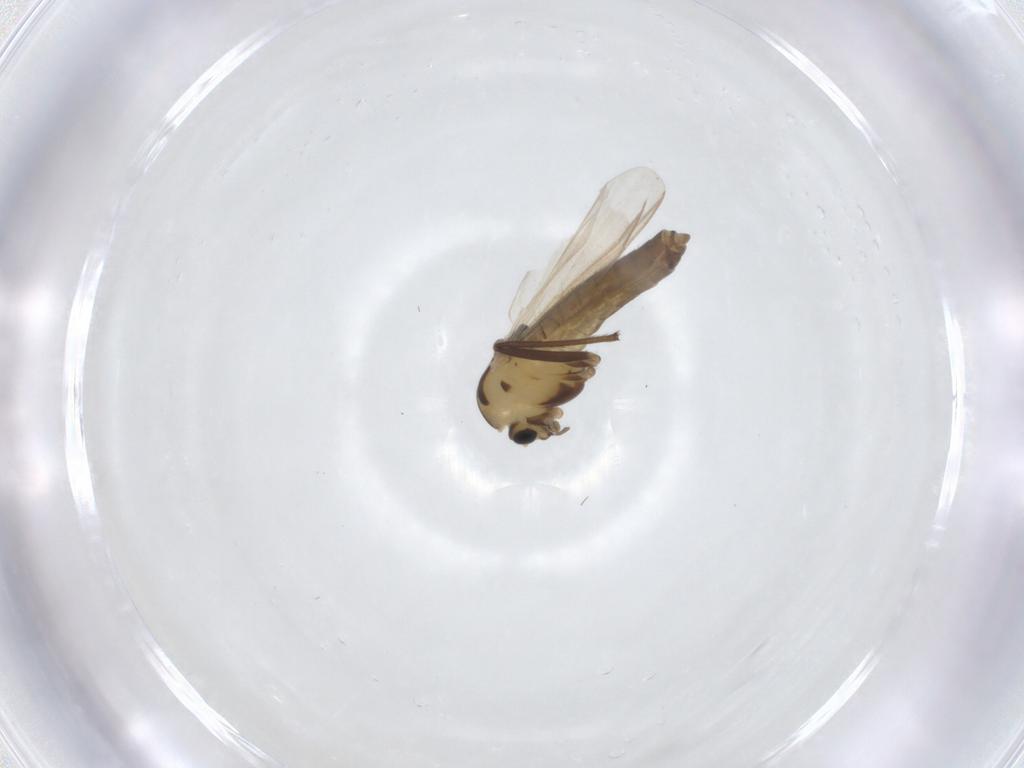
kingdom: Animalia
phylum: Arthropoda
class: Insecta
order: Diptera
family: Chironomidae
